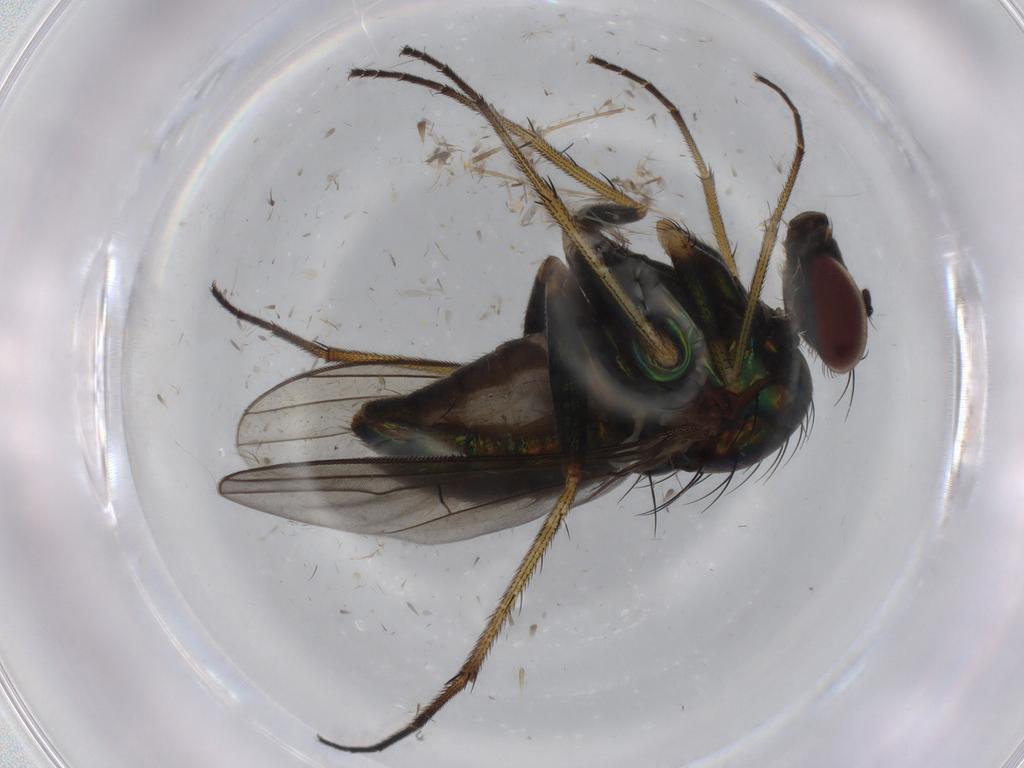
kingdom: Animalia
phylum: Arthropoda
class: Insecta
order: Diptera
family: Dolichopodidae
